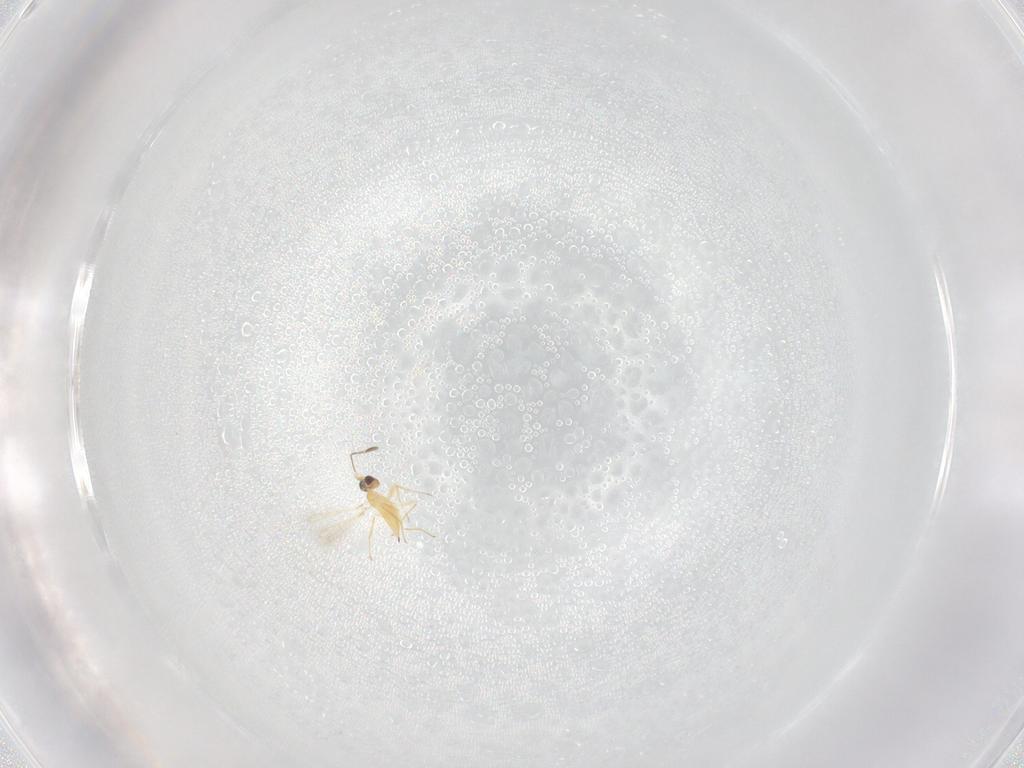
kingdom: Animalia
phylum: Arthropoda
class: Insecta
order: Hymenoptera
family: Mymaridae
